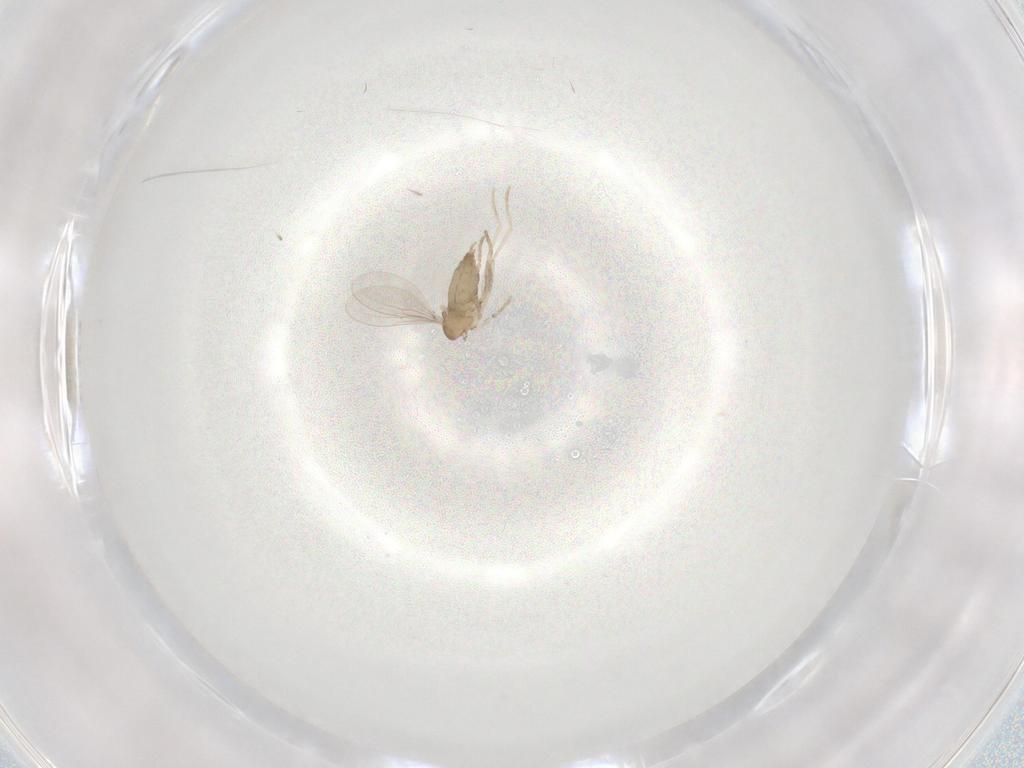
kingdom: Animalia
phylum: Arthropoda
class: Insecta
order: Diptera
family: Cecidomyiidae
